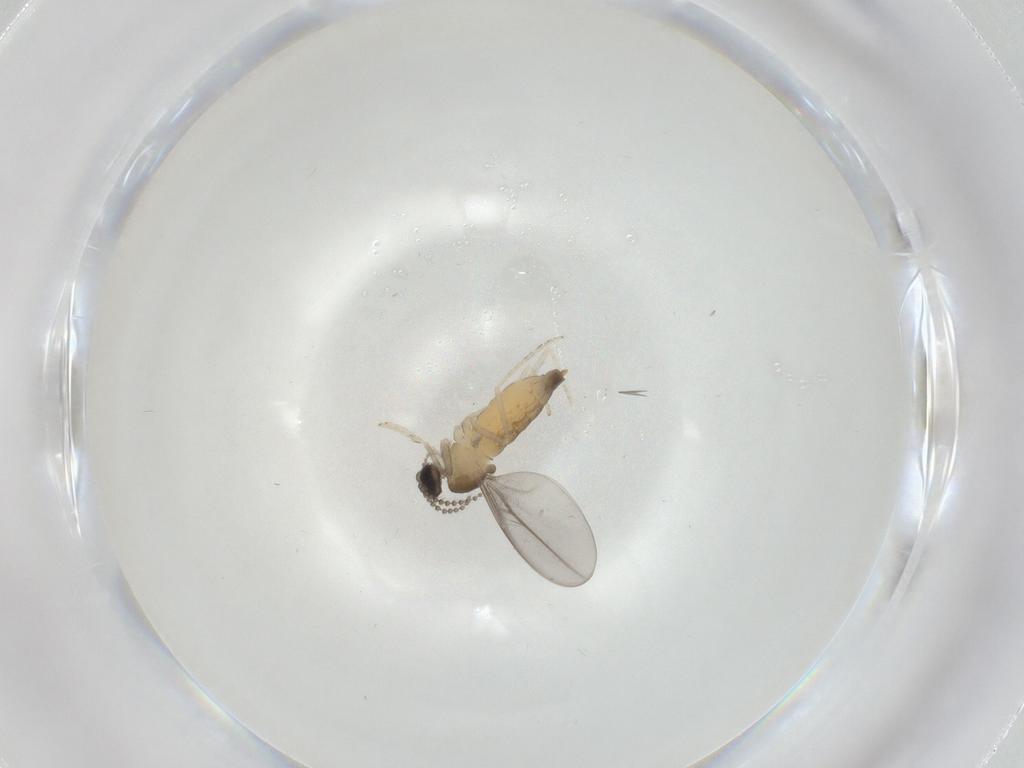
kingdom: Animalia
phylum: Arthropoda
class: Insecta
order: Diptera
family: Cecidomyiidae
